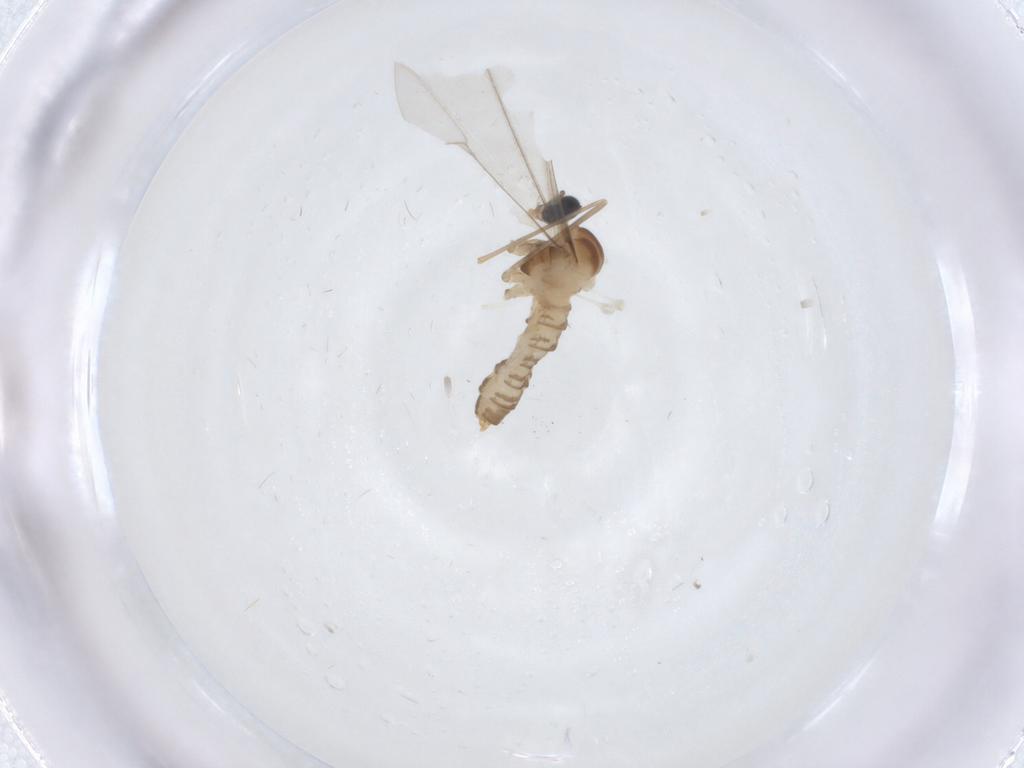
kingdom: Animalia
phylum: Arthropoda
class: Insecta
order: Diptera
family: Cecidomyiidae
